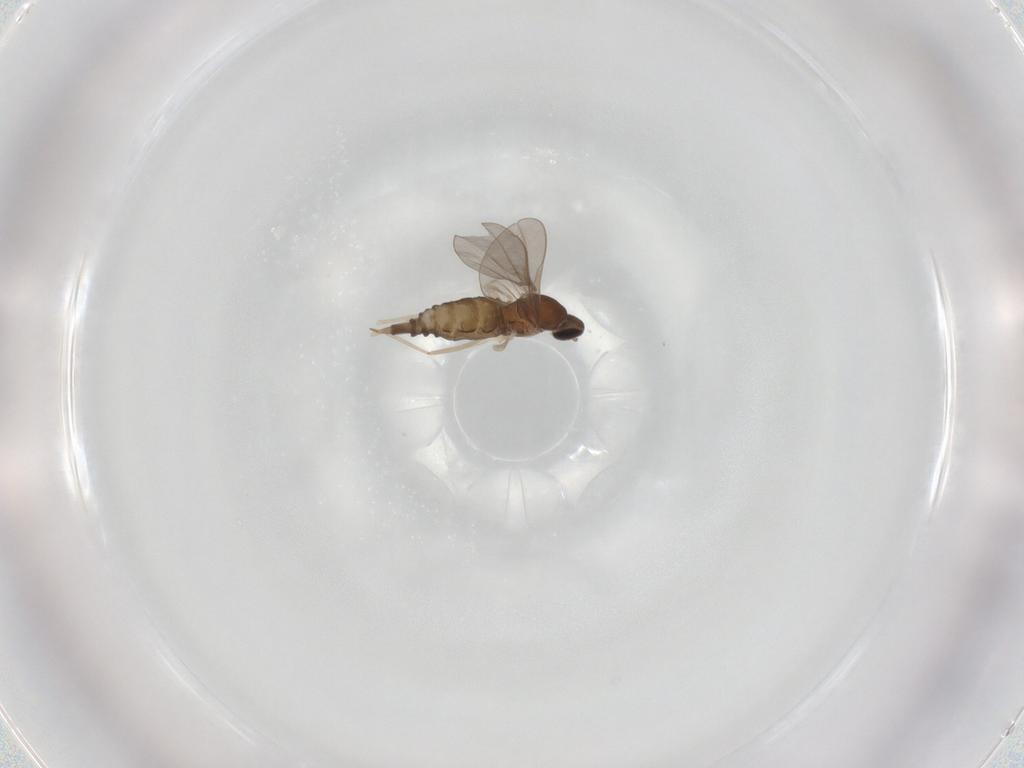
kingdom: Animalia
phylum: Arthropoda
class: Insecta
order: Diptera
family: Cecidomyiidae
